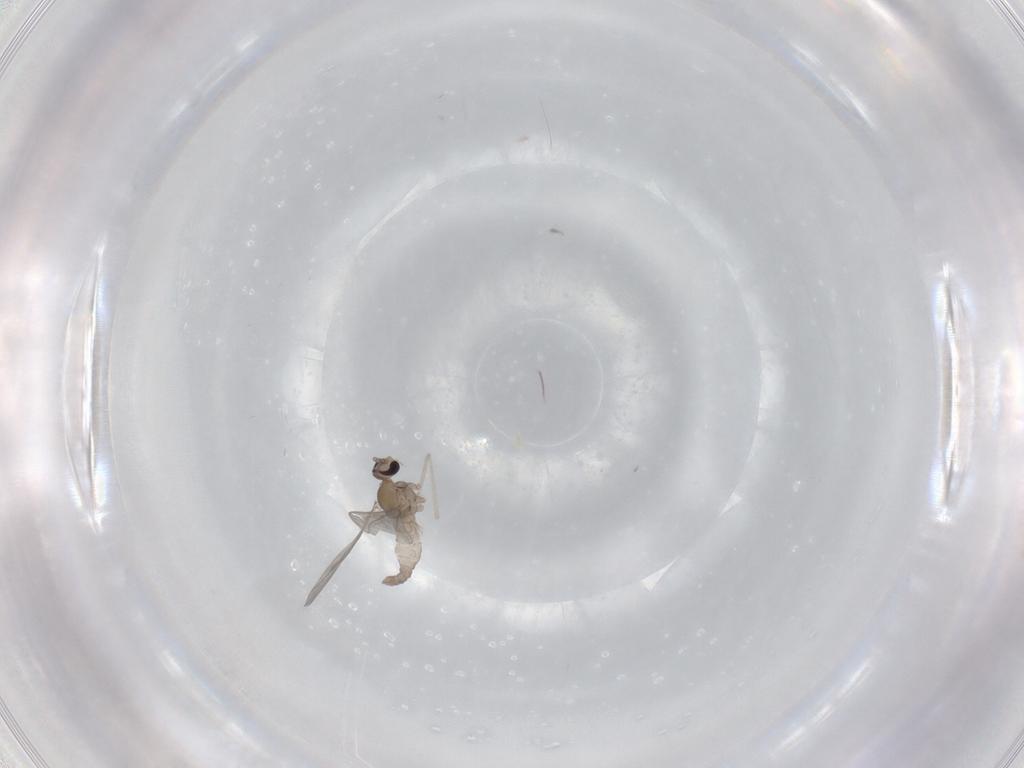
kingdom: Animalia
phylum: Arthropoda
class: Insecta
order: Diptera
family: Cecidomyiidae
